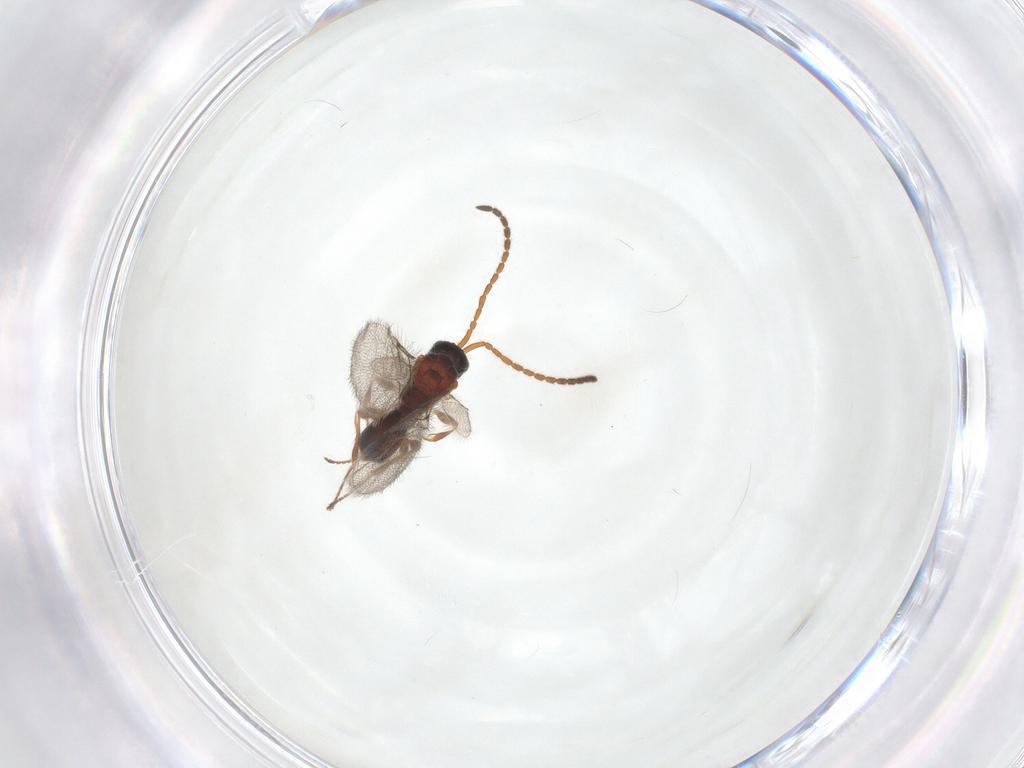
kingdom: Animalia
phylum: Arthropoda
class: Insecta
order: Hymenoptera
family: Diapriidae
